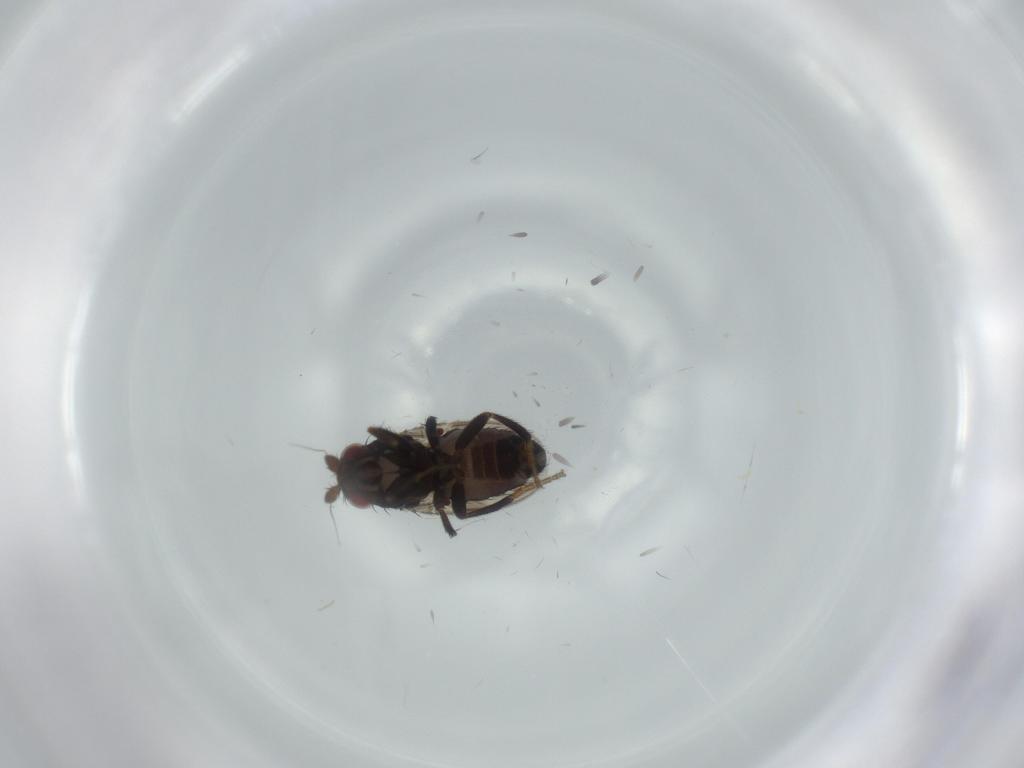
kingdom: Animalia
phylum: Arthropoda
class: Insecta
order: Diptera
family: Sphaeroceridae
